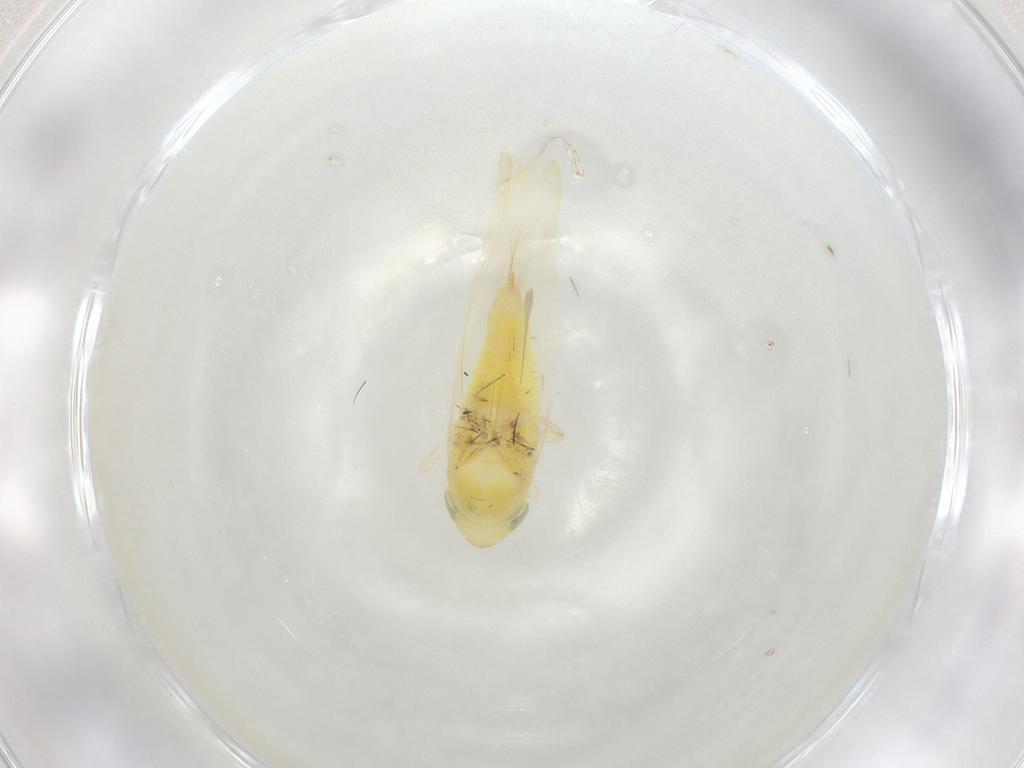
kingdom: Animalia
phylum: Arthropoda
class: Insecta
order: Hemiptera
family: Cicadellidae
